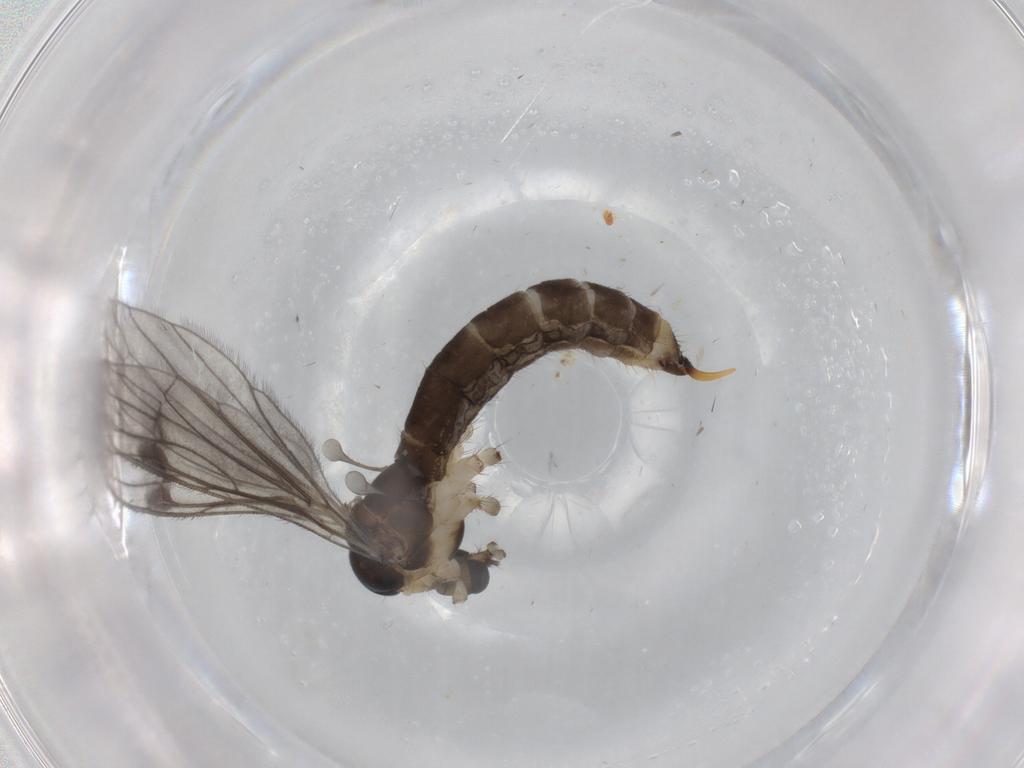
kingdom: Animalia
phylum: Arthropoda
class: Insecta
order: Diptera
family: Limoniidae
